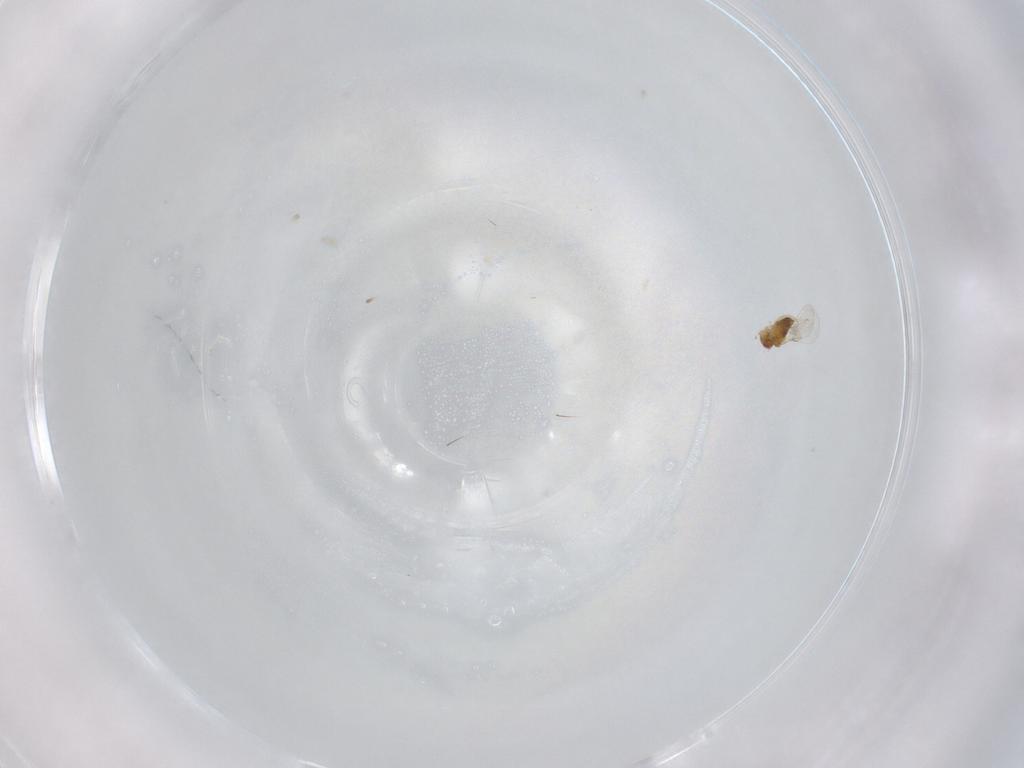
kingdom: Animalia
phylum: Arthropoda
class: Insecta
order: Hymenoptera
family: Trichogrammatidae
